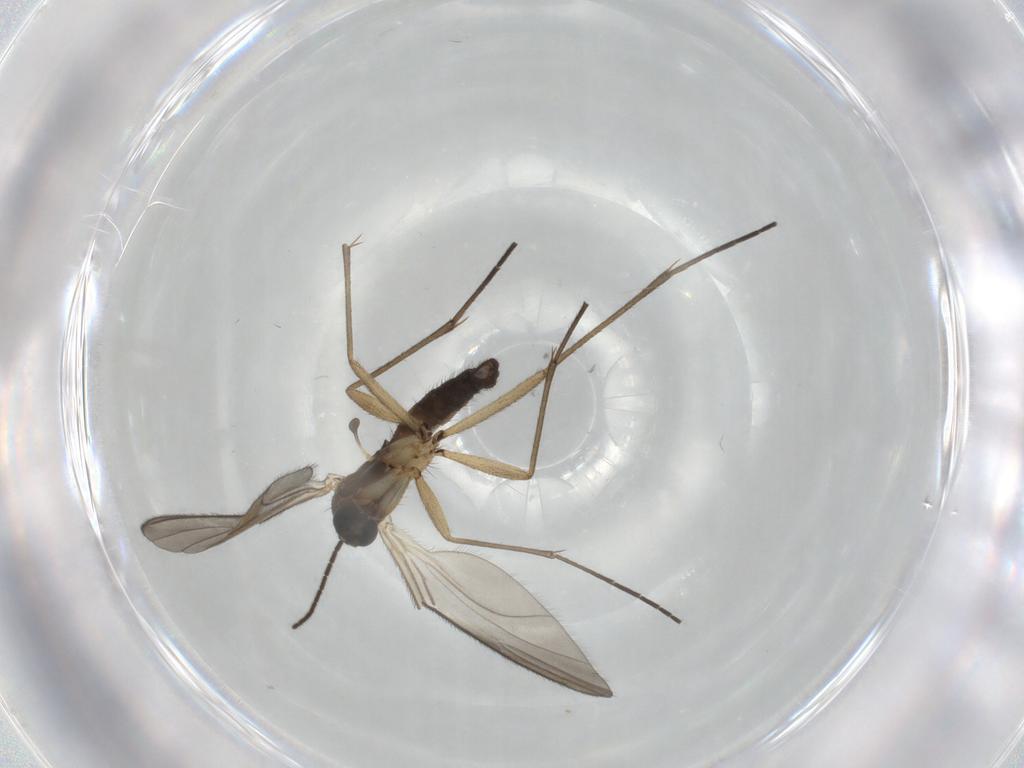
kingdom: Animalia
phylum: Arthropoda
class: Insecta
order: Diptera
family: Sciaridae
